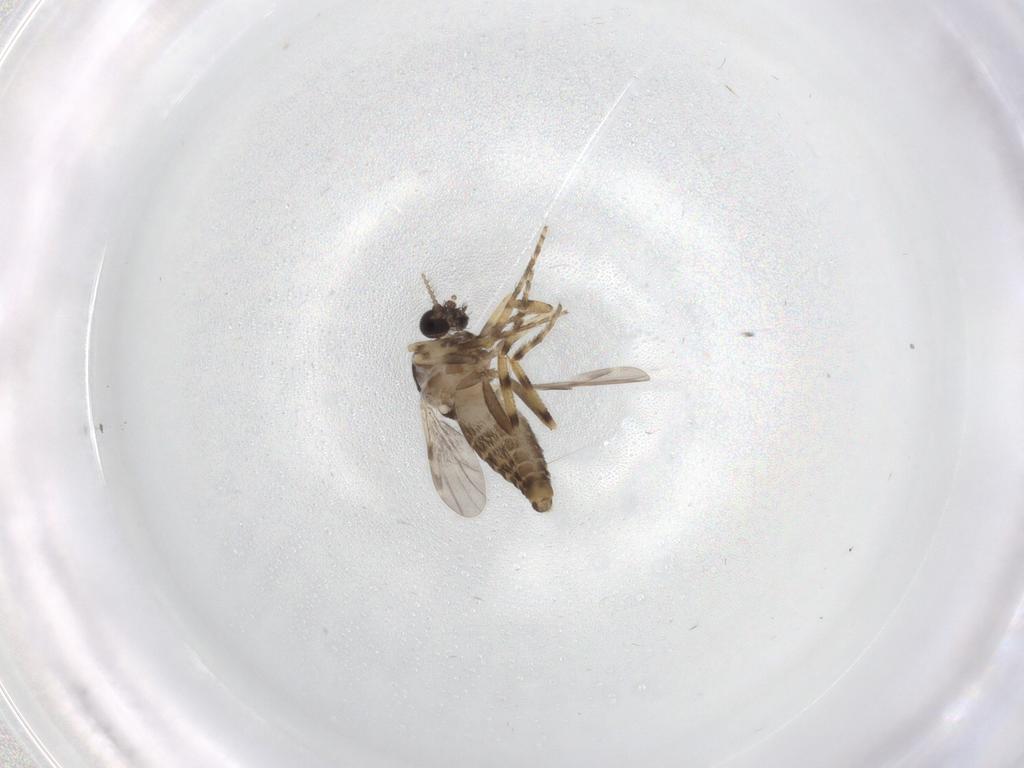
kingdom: Animalia
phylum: Arthropoda
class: Insecta
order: Diptera
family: Ceratopogonidae
